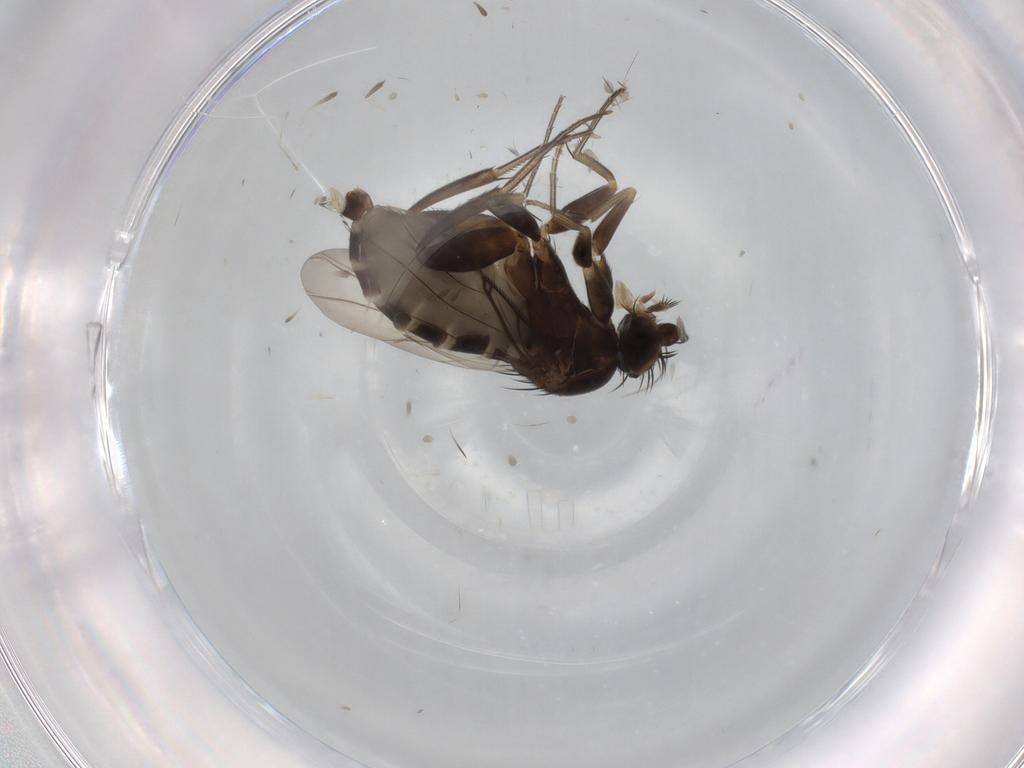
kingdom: Animalia
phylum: Arthropoda
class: Insecta
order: Diptera
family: Phoridae
